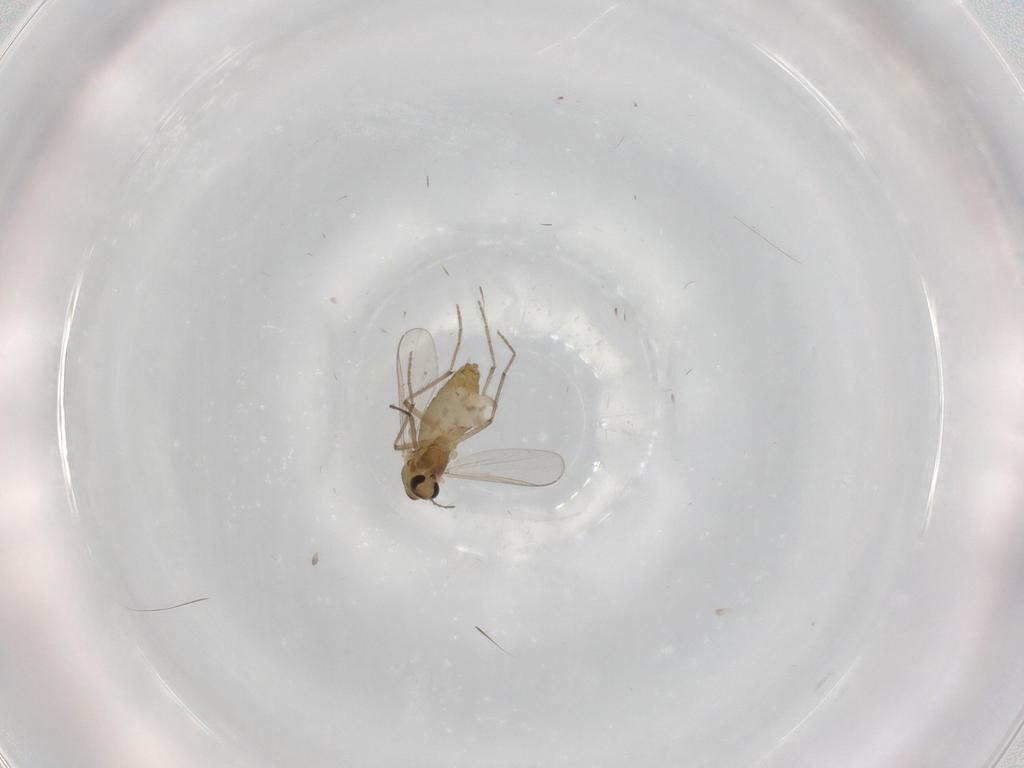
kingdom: Animalia
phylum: Arthropoda
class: Insecta
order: Diptera
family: Chironomidae
